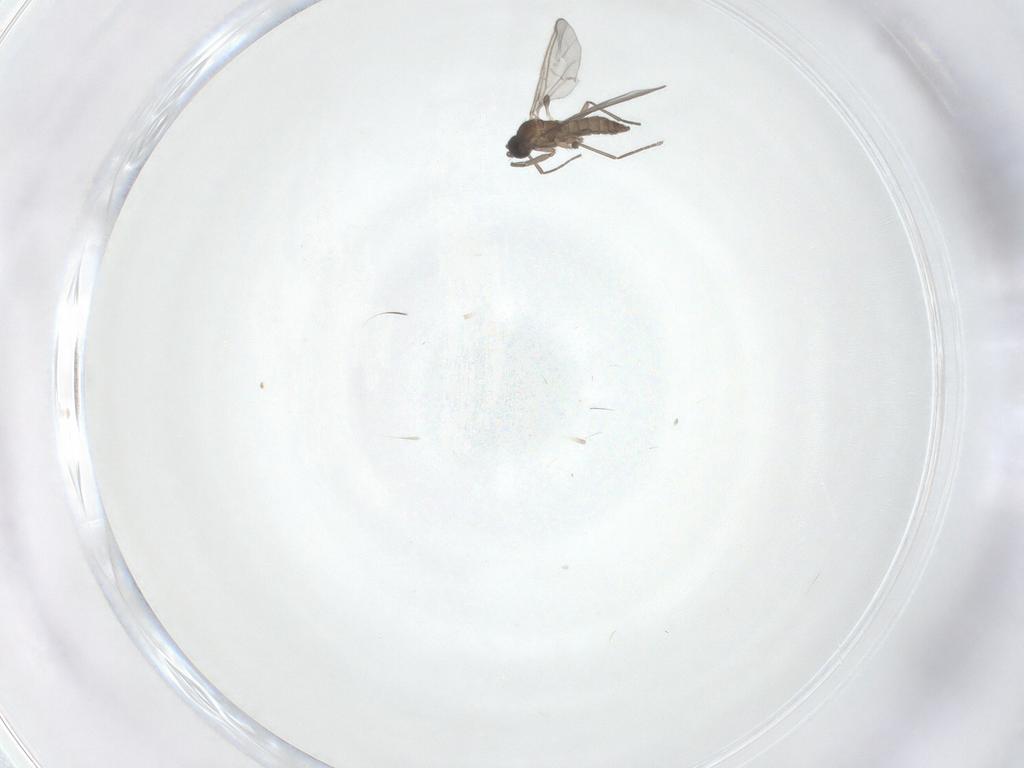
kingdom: Animalia
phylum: Arthropoda
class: Insecta
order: Diptera
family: Sciaridae
